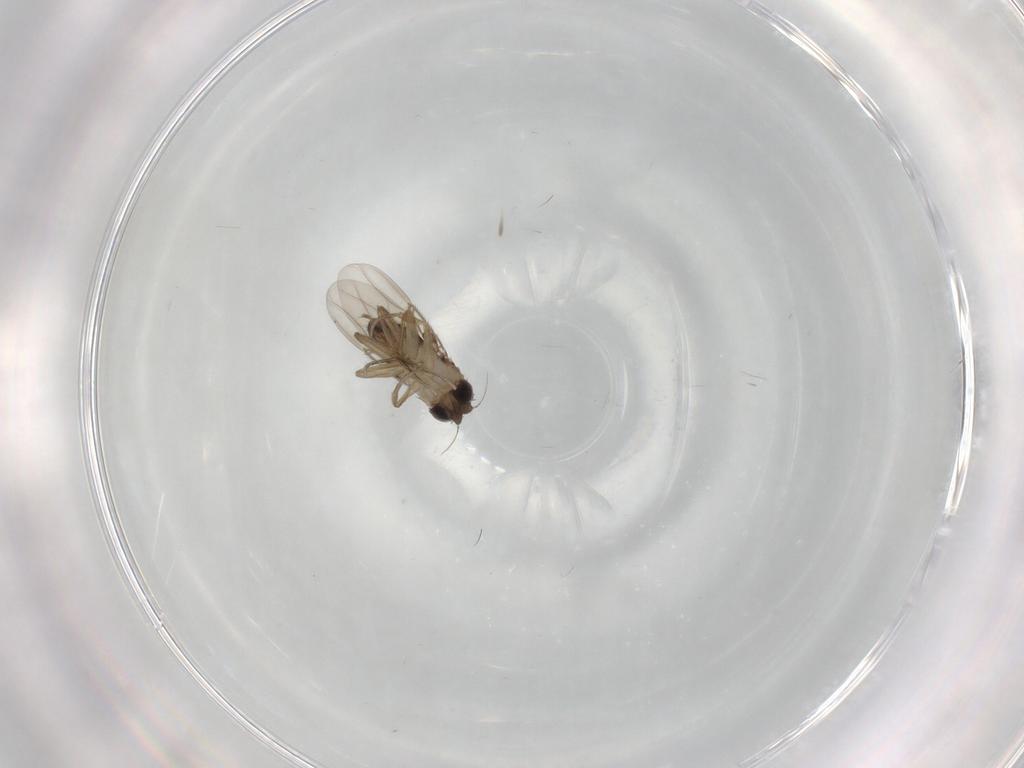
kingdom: Animalia
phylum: Arthropoda
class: Insecta
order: Diptera
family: Phoridae
